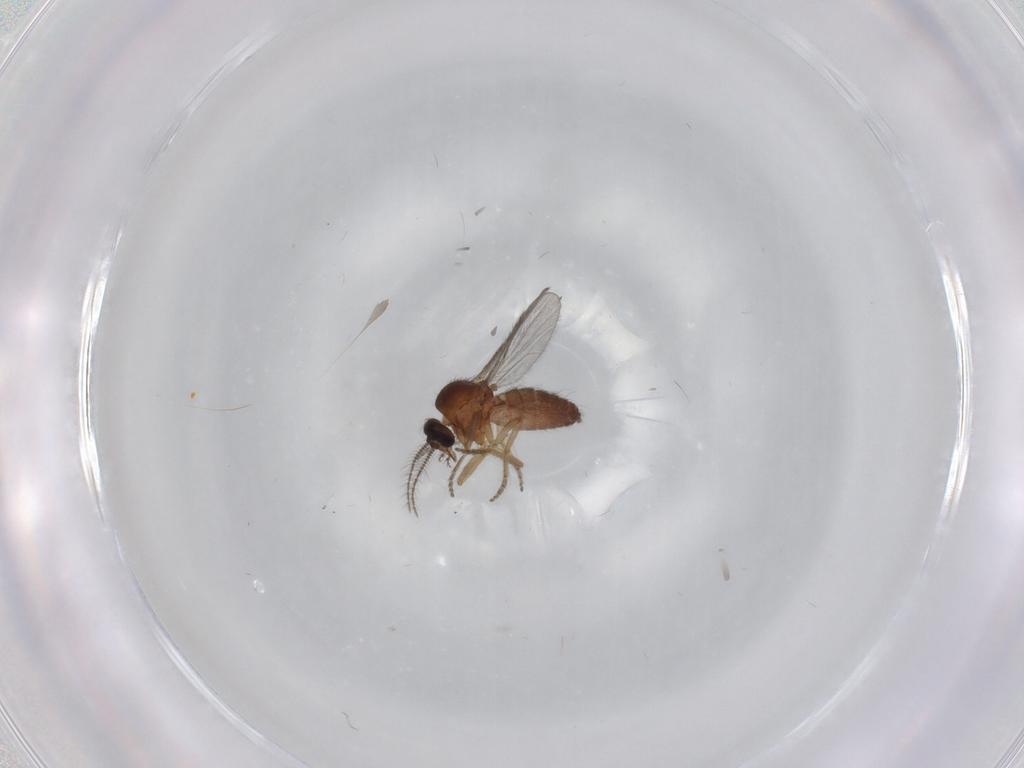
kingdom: Animalia
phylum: Arthropoda
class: Insecta
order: Diptera
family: Ceratopogonidae
